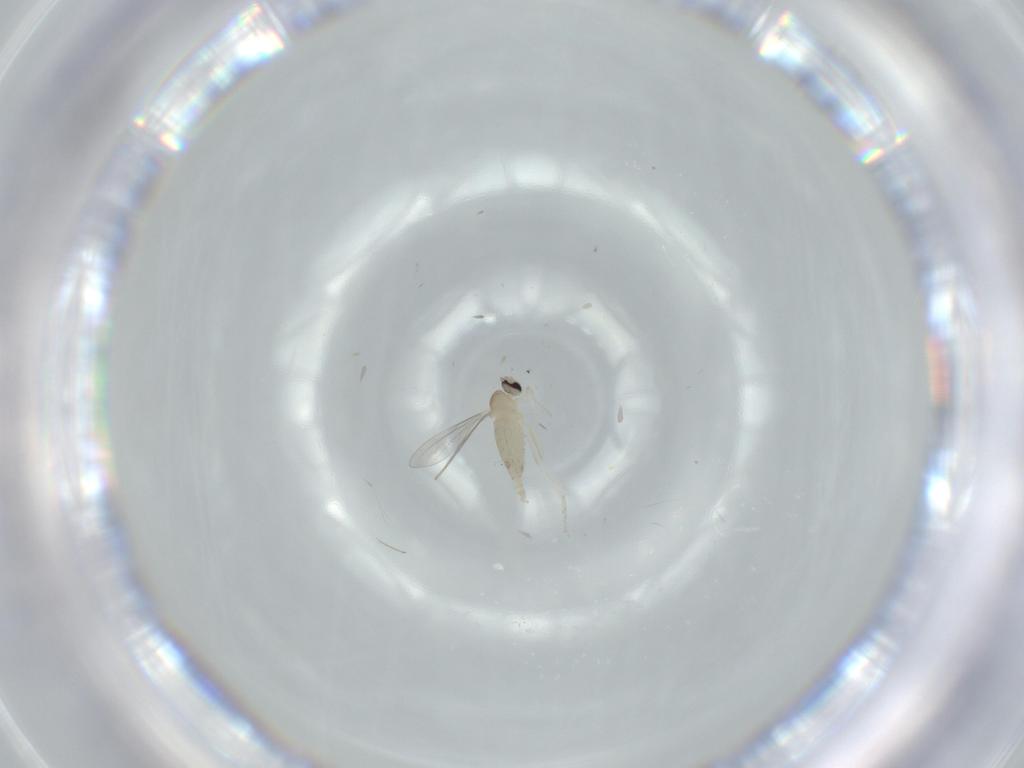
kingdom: Animalia
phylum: Arthropoda
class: Insecta
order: Diptera
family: Cecidomyiidae
